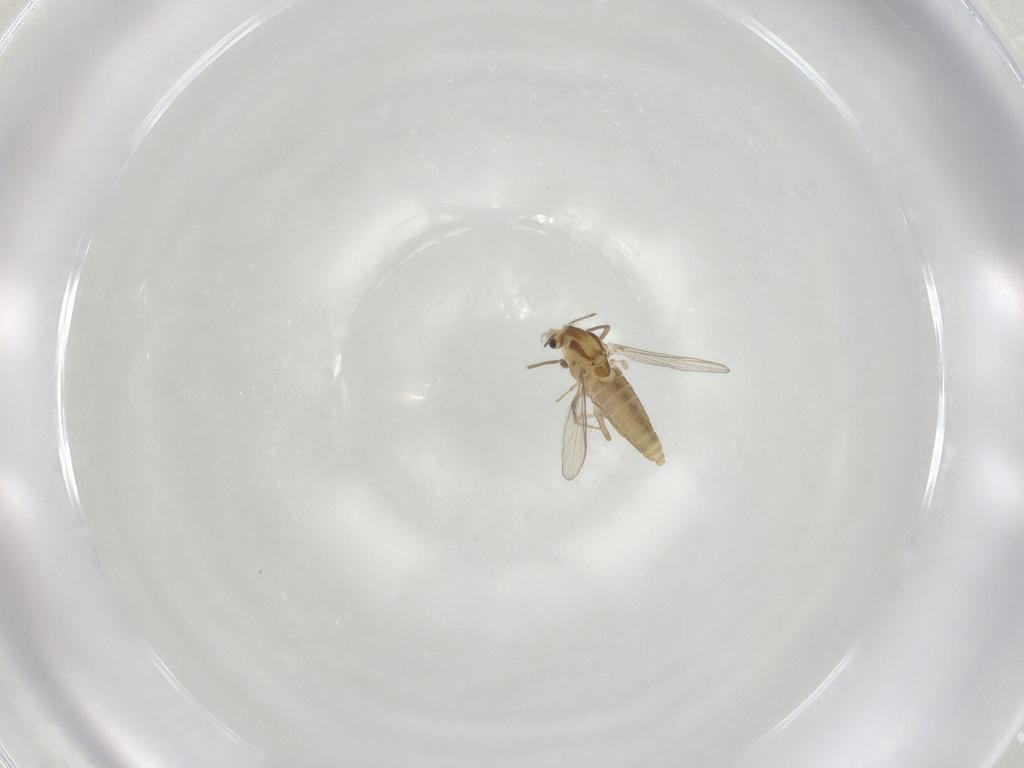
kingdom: Animalia
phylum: Arthropoda
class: Insecta
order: Diptera
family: Chironomidae
